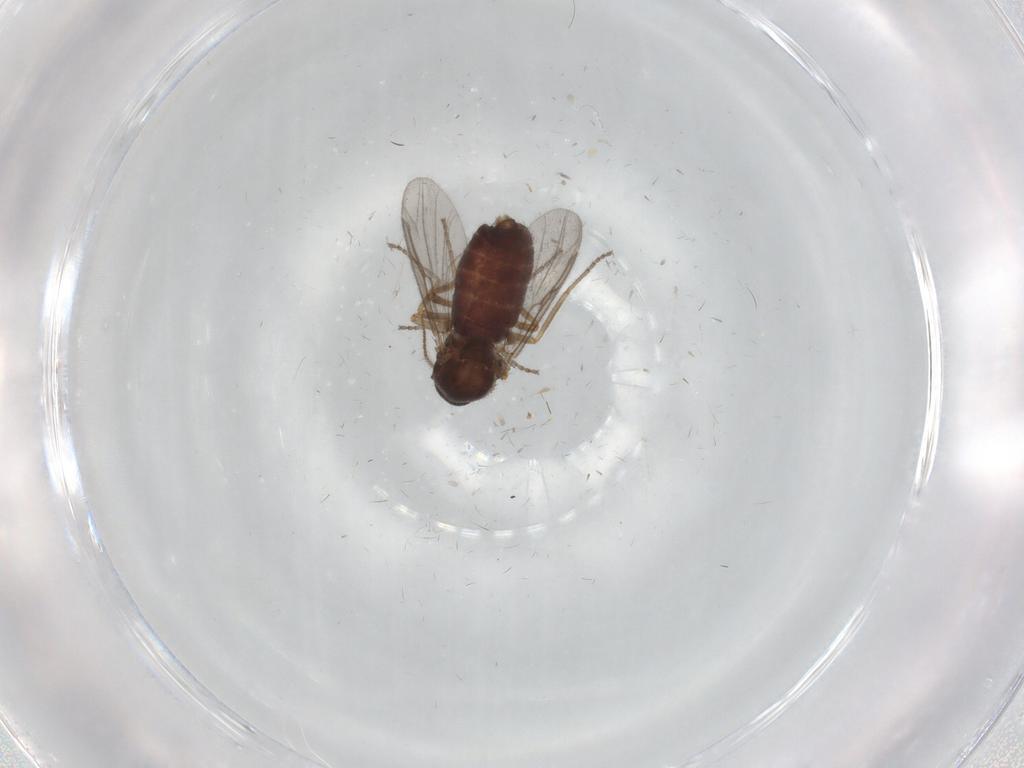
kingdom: Animalia
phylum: Arthropoda
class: Insecta
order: Diptera
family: Ceratopogonidae
